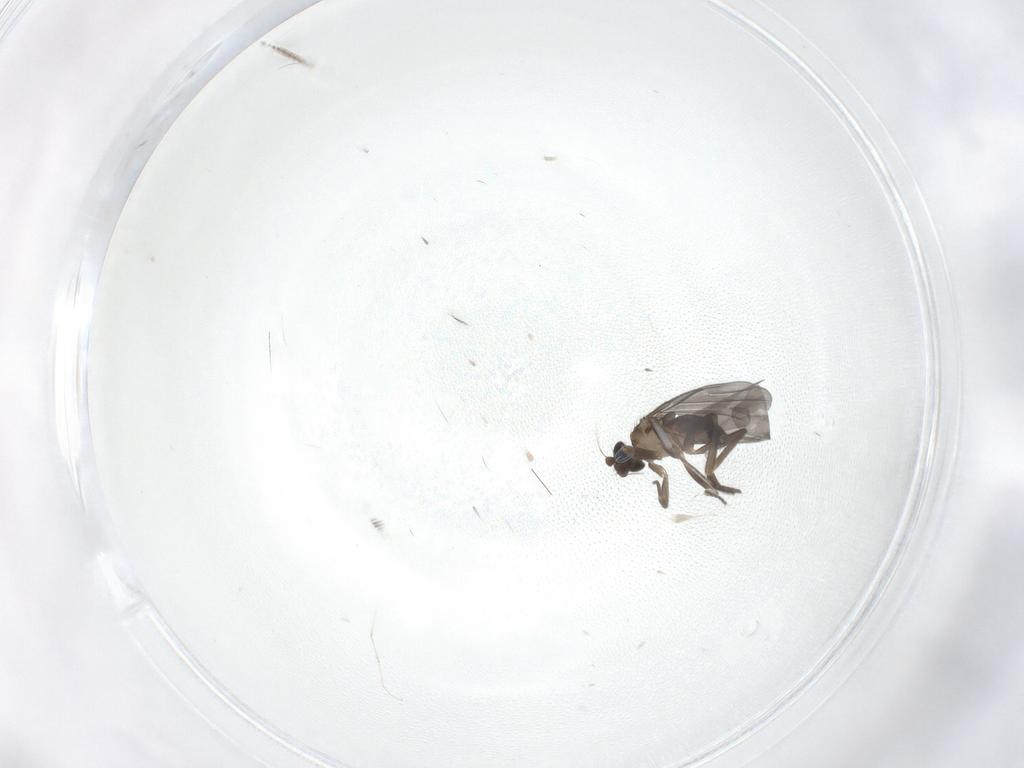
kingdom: Animalia
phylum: Arthropoda
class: Insecta
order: Diptera
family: Phoridae
